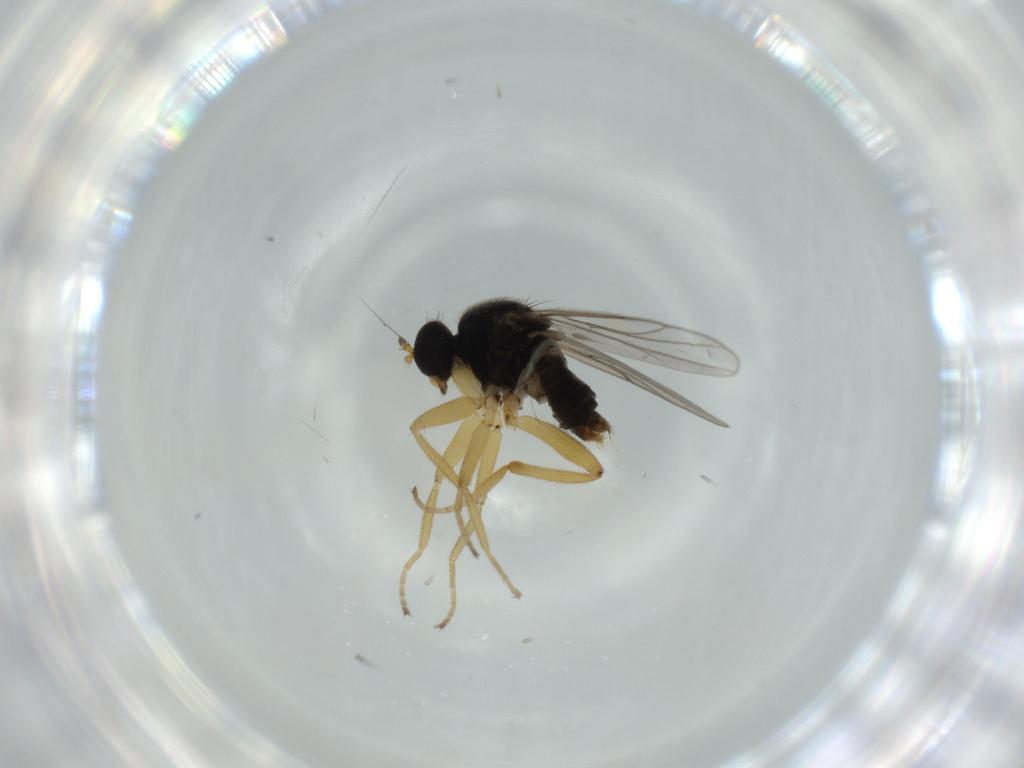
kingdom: Animalia
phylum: Arthropoda
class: Insecta
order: Diptera
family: Hybotidae
